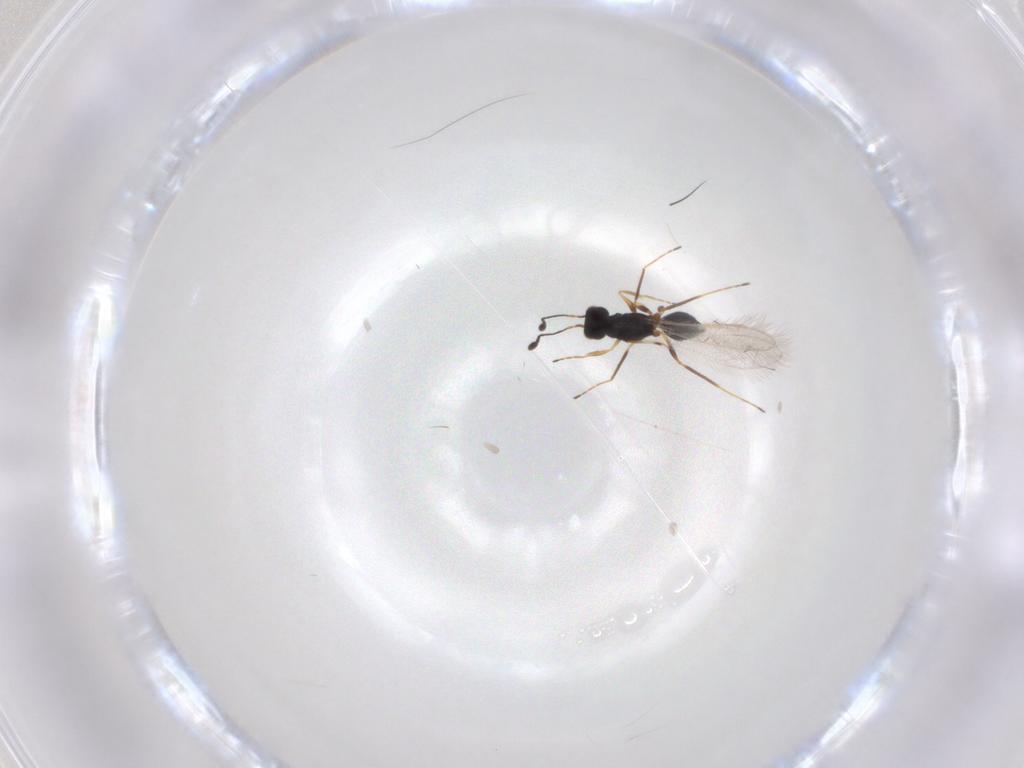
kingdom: Animalia
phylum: Arthropoda
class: Insecta
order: Hymenoptera
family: Mymaridae
